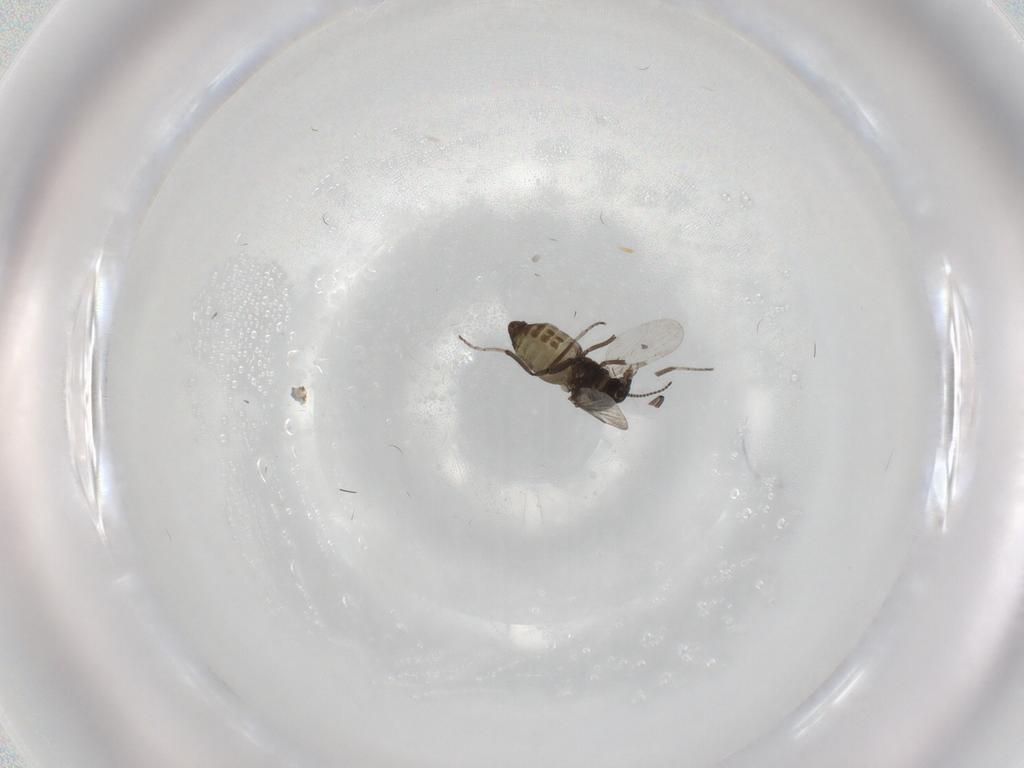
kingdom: Animalia
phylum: Arthropoda
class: Insecta
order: Diptera
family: Ceratopogonidae
